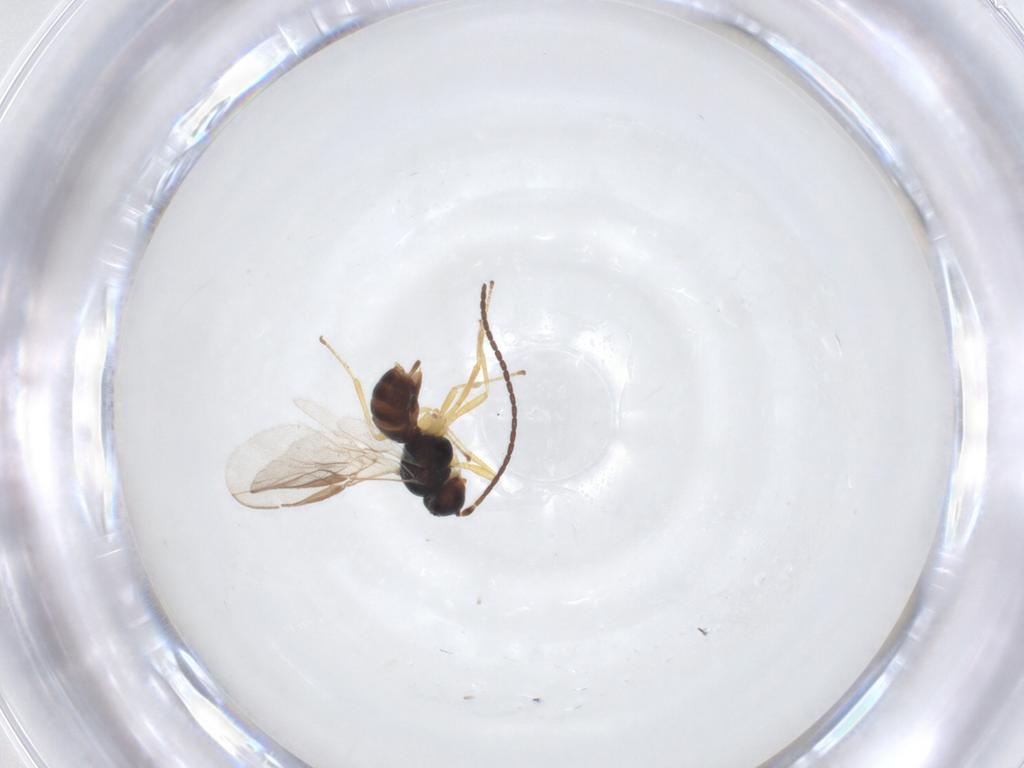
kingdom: Animalia
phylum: Arthropoda
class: Insecta
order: Hymenoptera
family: Braconidae
